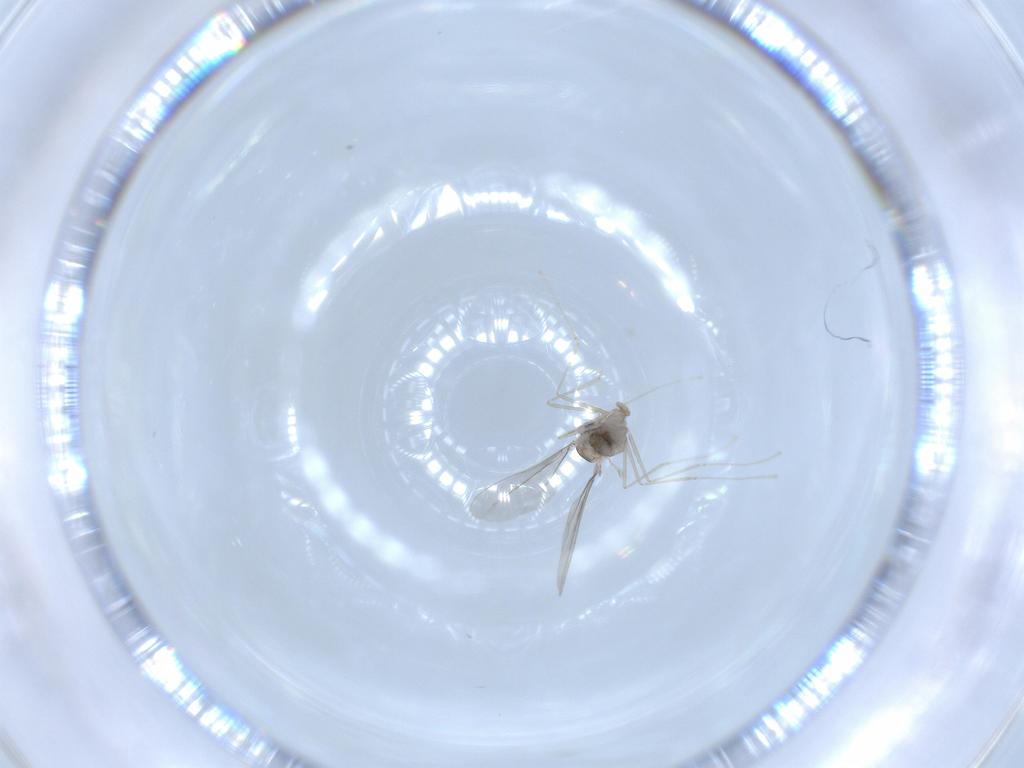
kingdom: Animalia
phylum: Arthropoda
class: Insecta
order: Diptera
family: Cecidomyiidae
